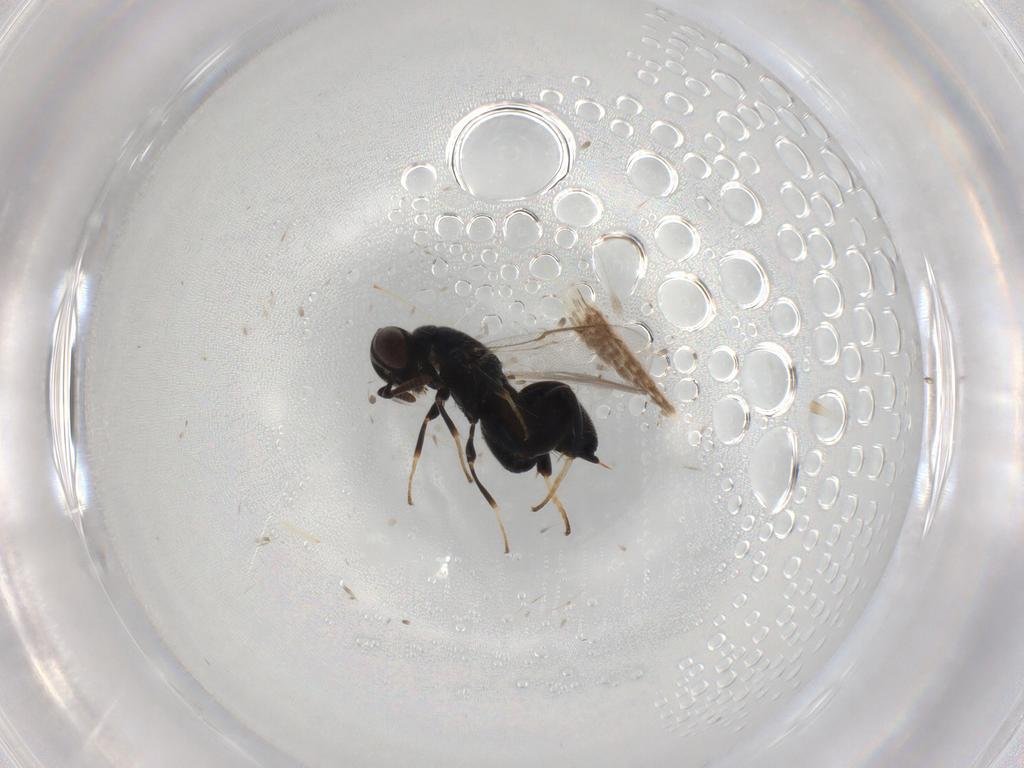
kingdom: Animalia
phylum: Arthropoda
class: Insecta
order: Hymenoptera
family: Torymidae
